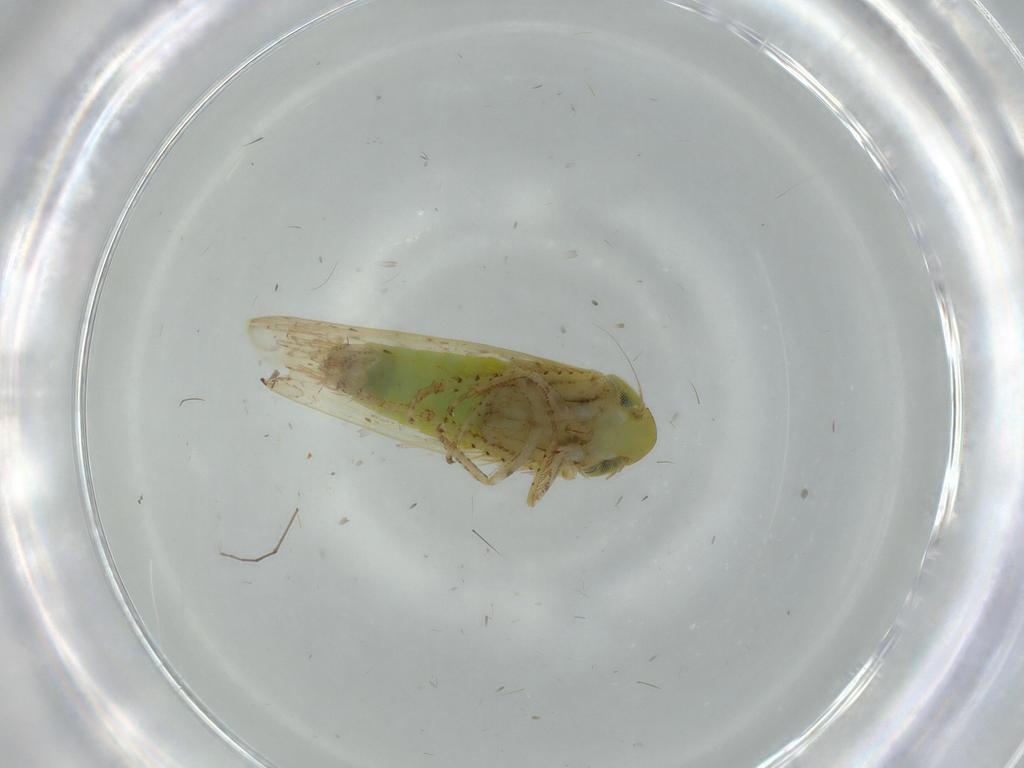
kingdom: Animalia
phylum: Arthropoda
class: Insecta
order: Hemiptera
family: Cicadellidae
